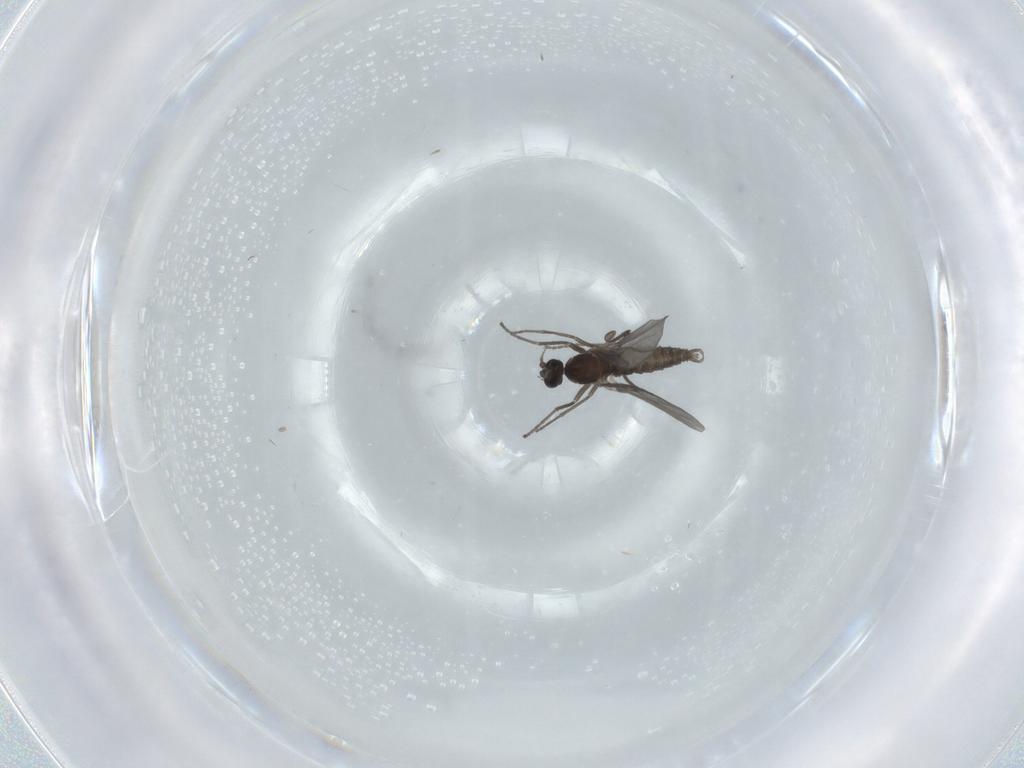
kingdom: Animalia
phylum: Arthropoda
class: Insecta
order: Diptera
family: Cecidomyiidae
